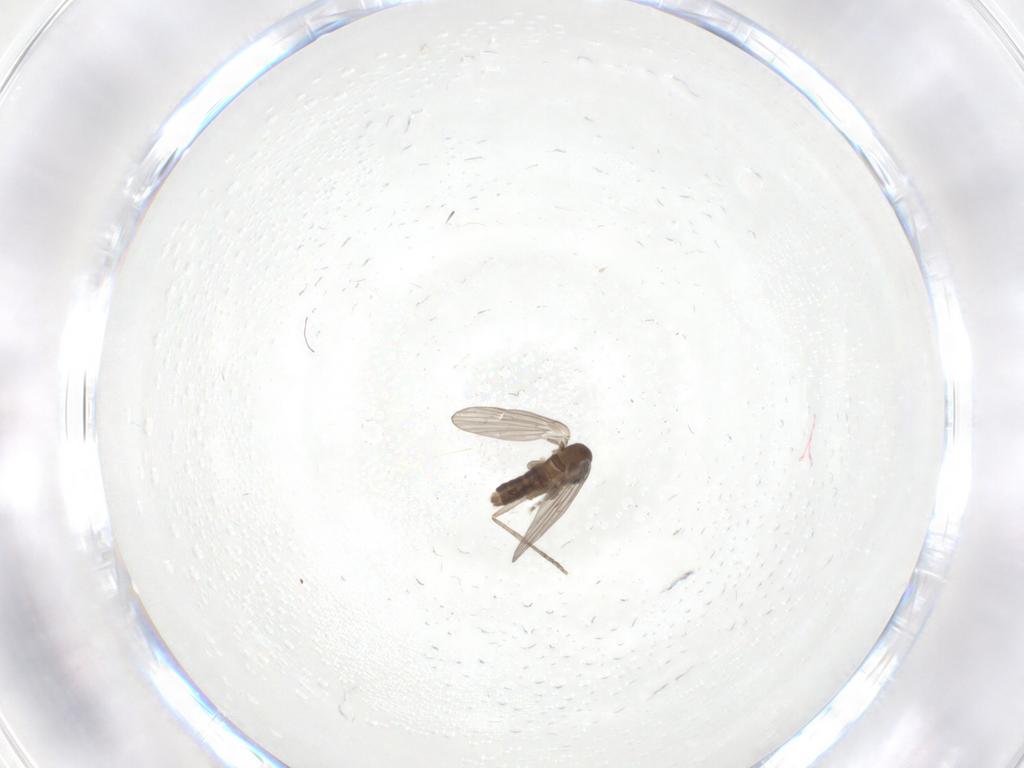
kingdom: Animalia
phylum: Arthropoda
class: Insecta
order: Diptera
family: Psychodidae
